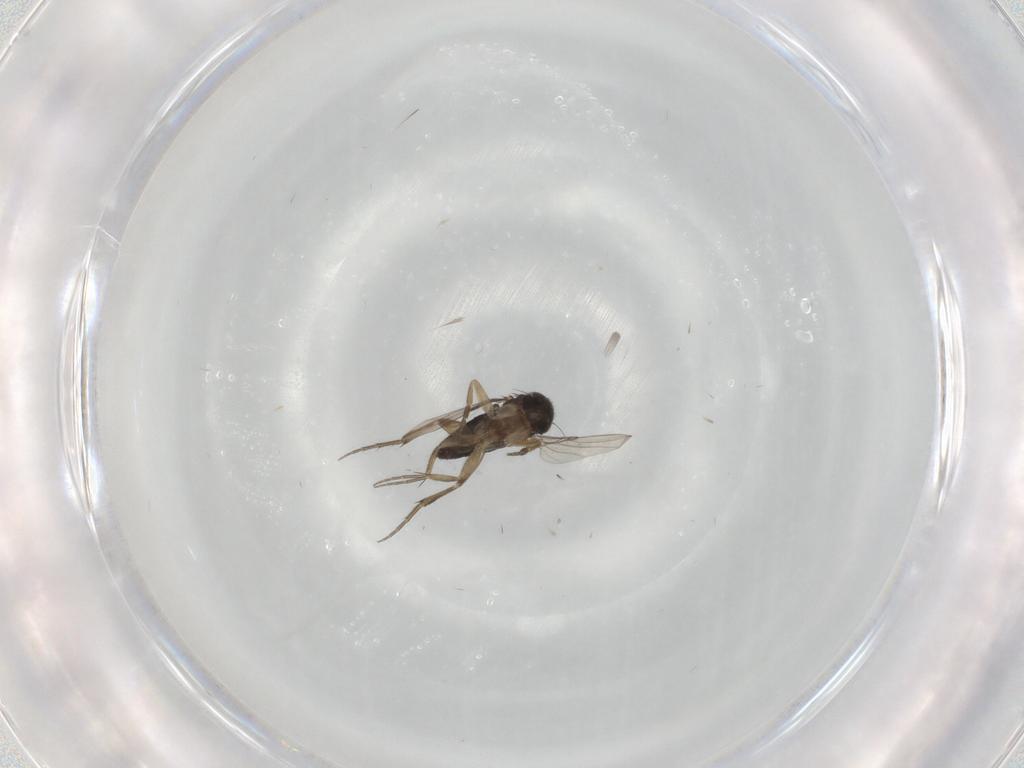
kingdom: Animalia
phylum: Arthropoda
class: Insecta
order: Diptera
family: Phoridae
